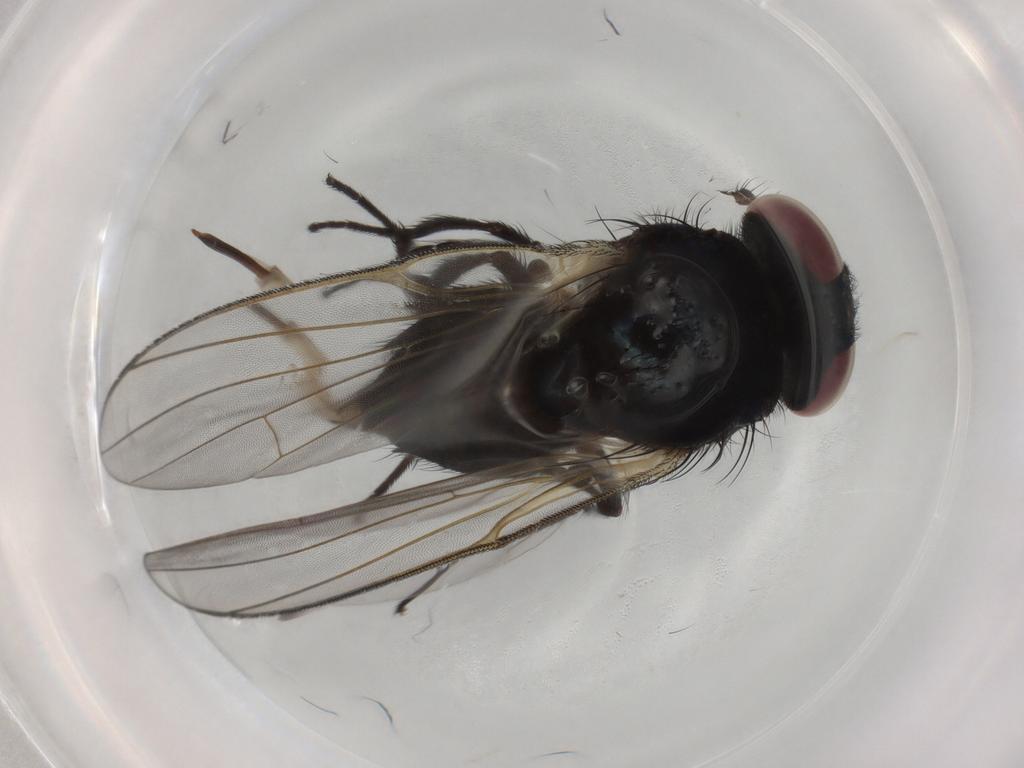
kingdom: Animalia
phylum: Arthropoda
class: Insecta
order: Diptera
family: Lonchaeidae
